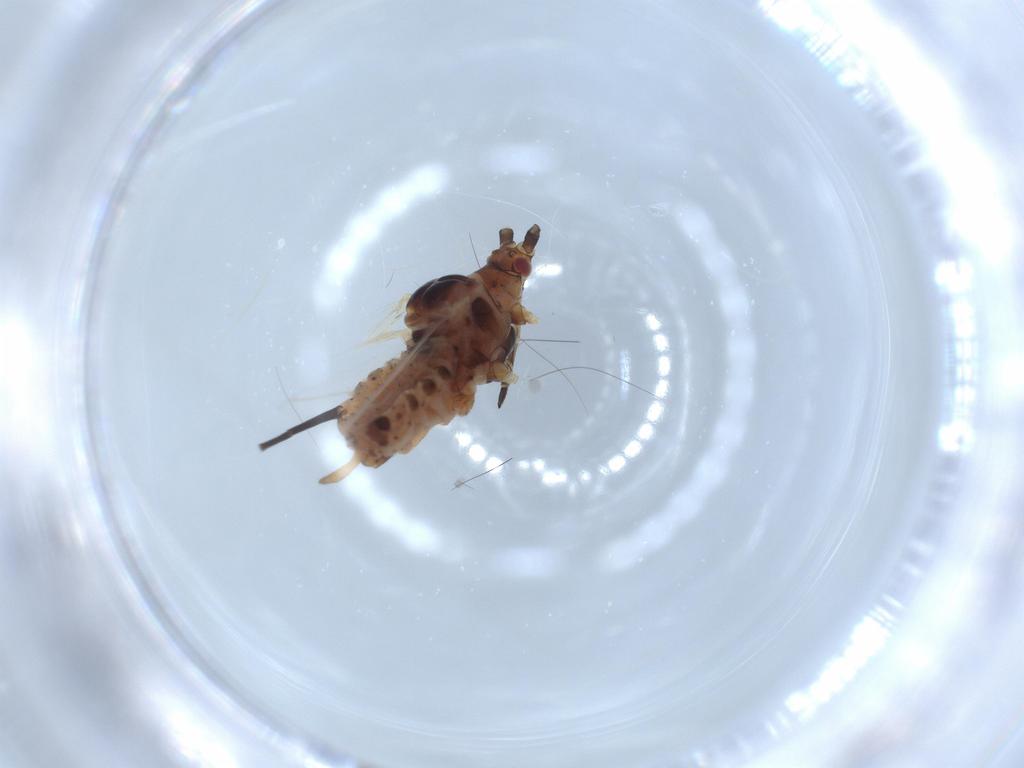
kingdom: Animalia
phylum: Arthropoda
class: Insecta
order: Hemiptera
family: Aphididae
